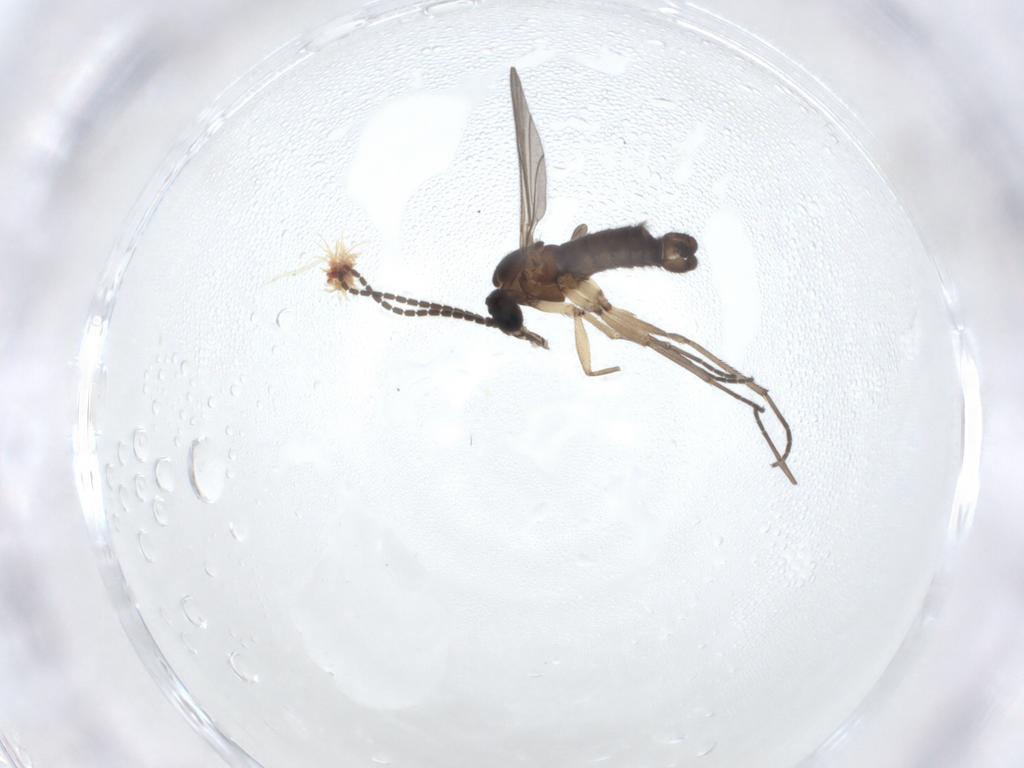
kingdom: Animalia
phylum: Arthropoda
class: Insecta
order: Diptera
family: Sciaridae
